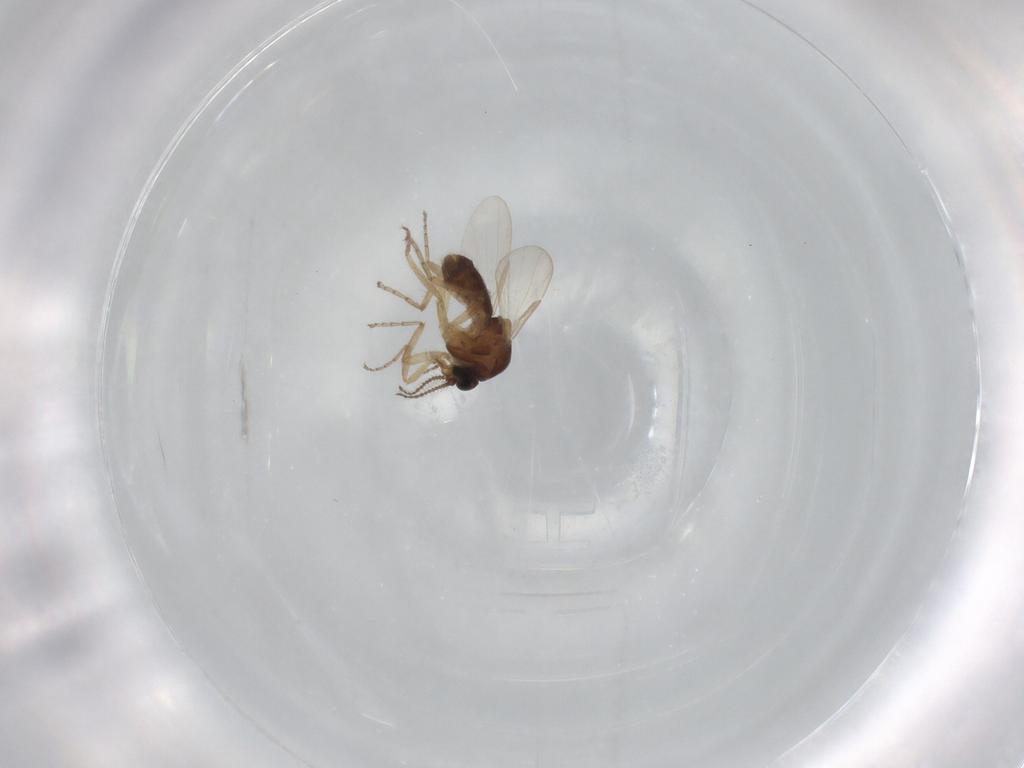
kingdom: Animalia
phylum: Arthropoda
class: Insecta
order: Diptera
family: Ceratopogonidae
